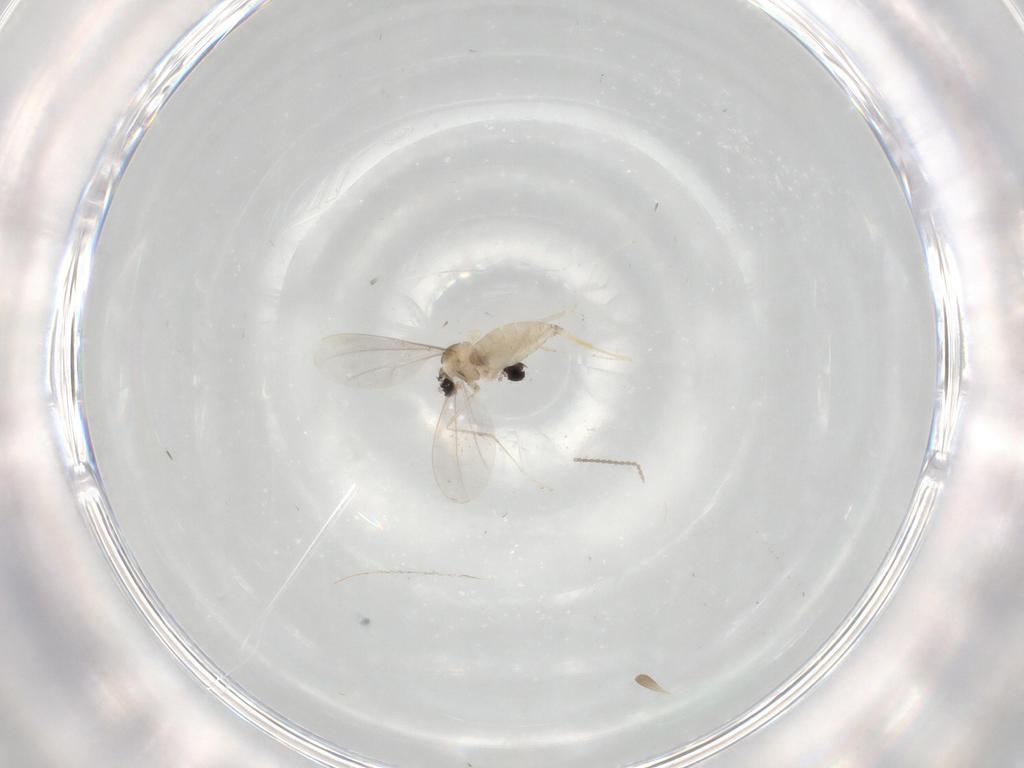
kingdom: Animalia
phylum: Arthropoda
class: Insecta
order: Diptera
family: Cecidomyiidae
